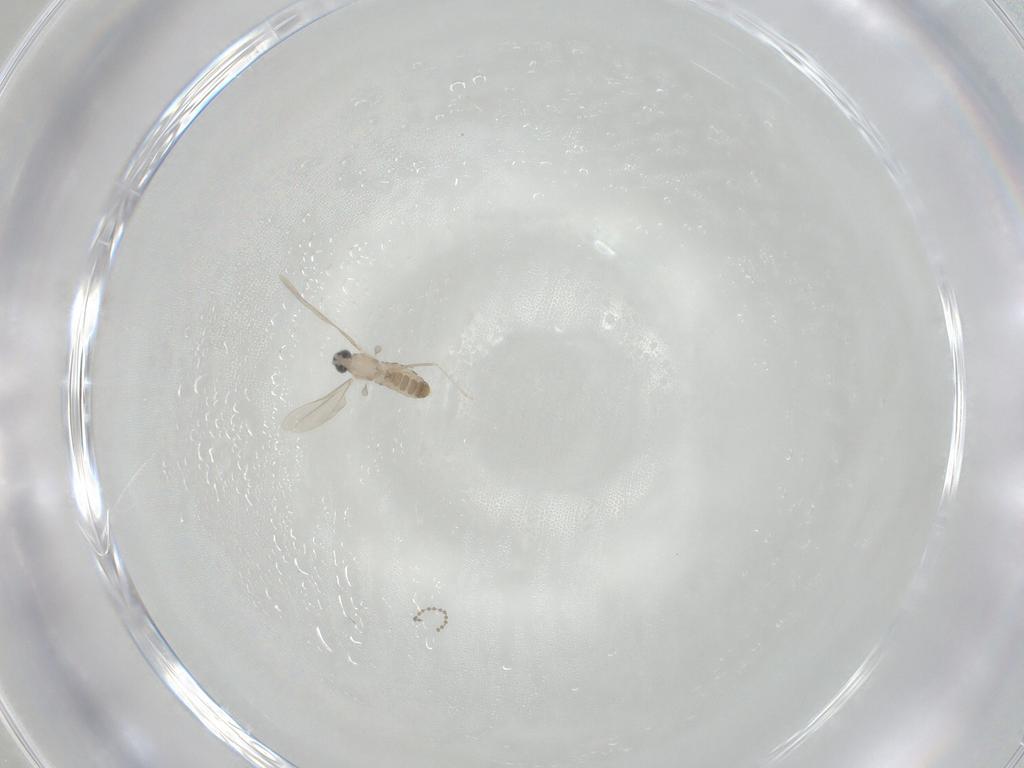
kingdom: Animalia
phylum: Arthropoda
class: Insecta
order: Diptera
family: Cecidomyiidae
